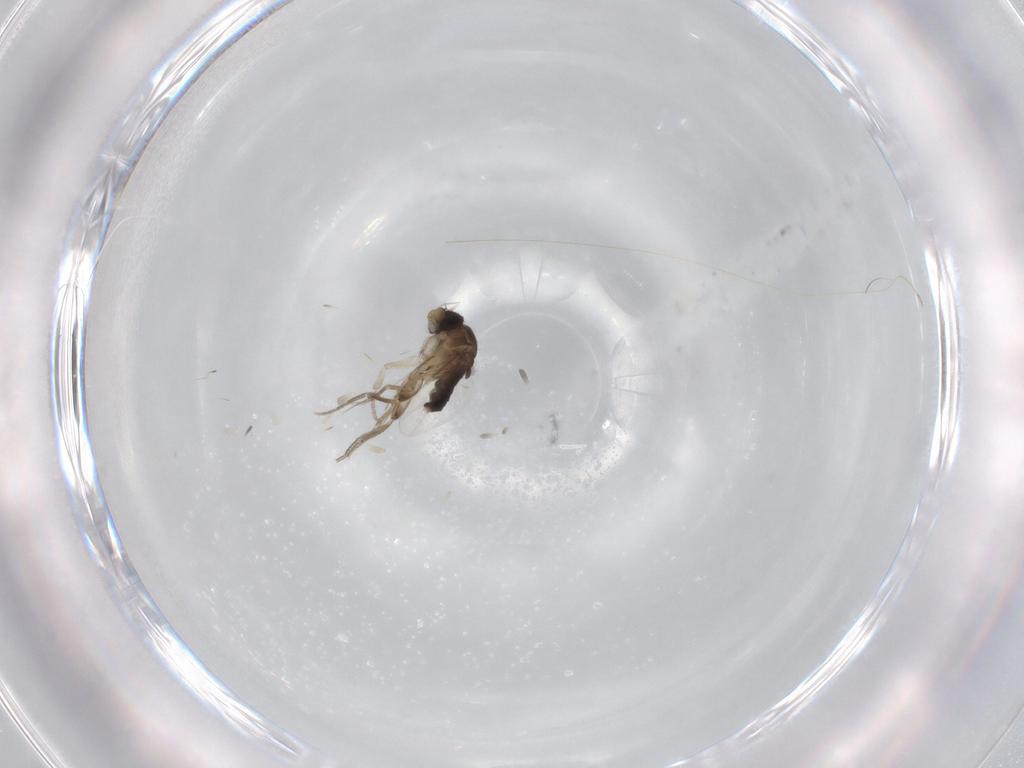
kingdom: Animalia
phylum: Arthropoda
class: Insecta
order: Diptera
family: Phoridae
